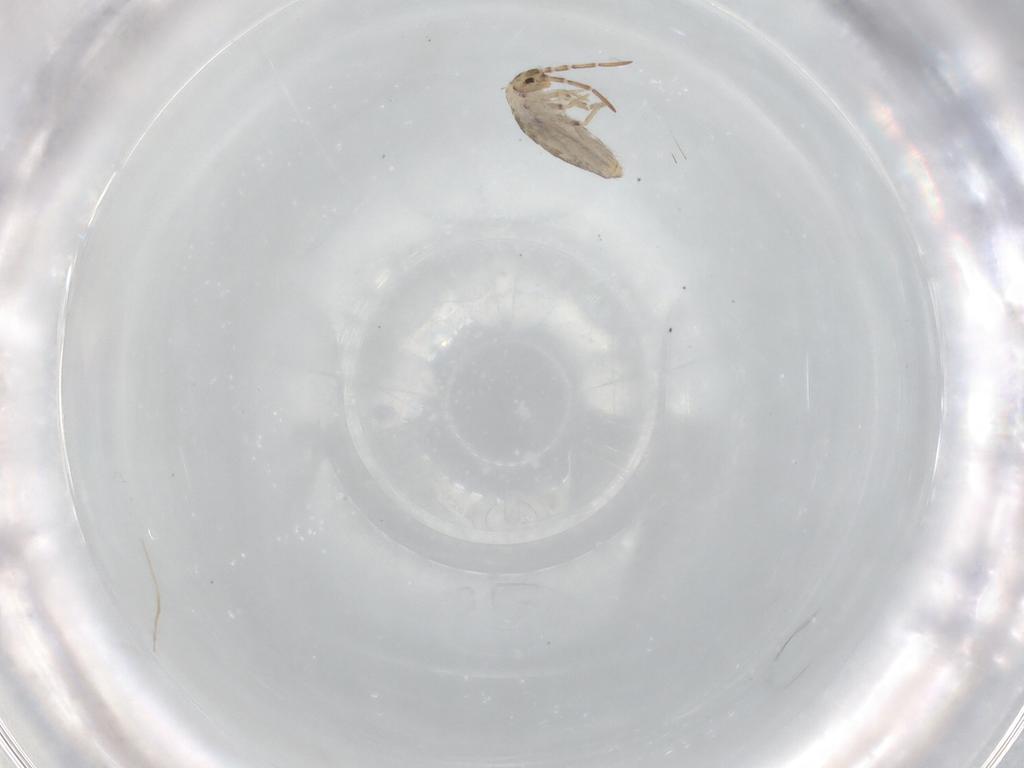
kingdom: Animalia
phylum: Arthropoda
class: Collembola
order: Entomobryomorpha
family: Entomobryidae
